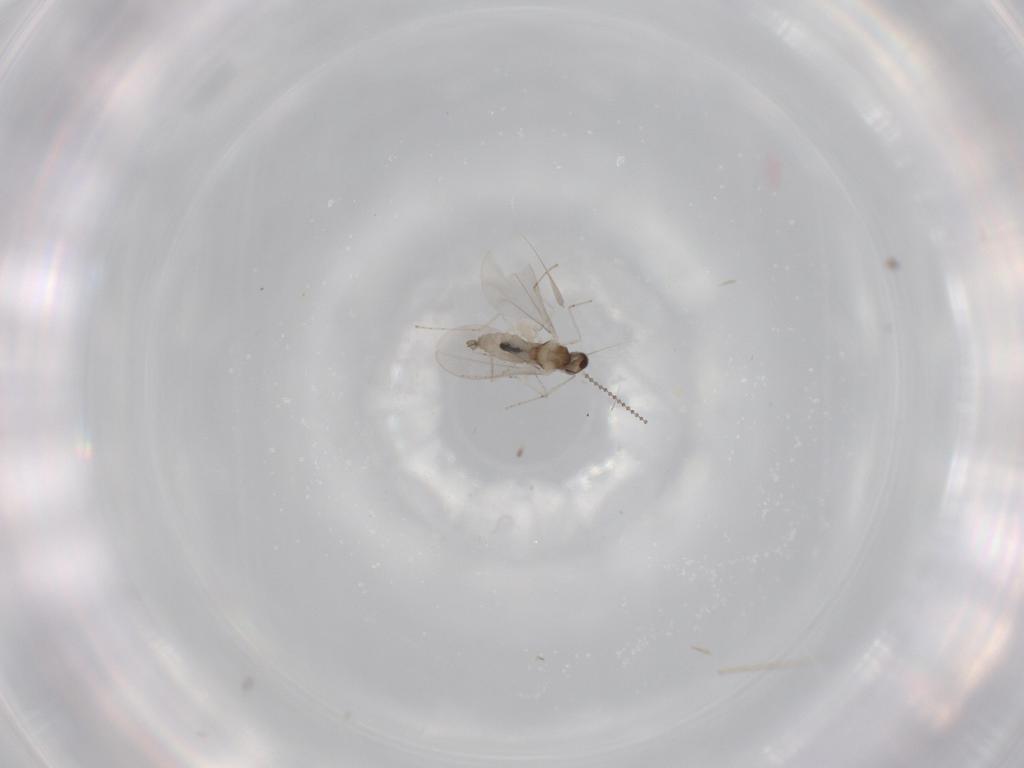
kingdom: Animalia
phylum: Arthropoda
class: Insecta
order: Diptera
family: Cecidomyiidae
